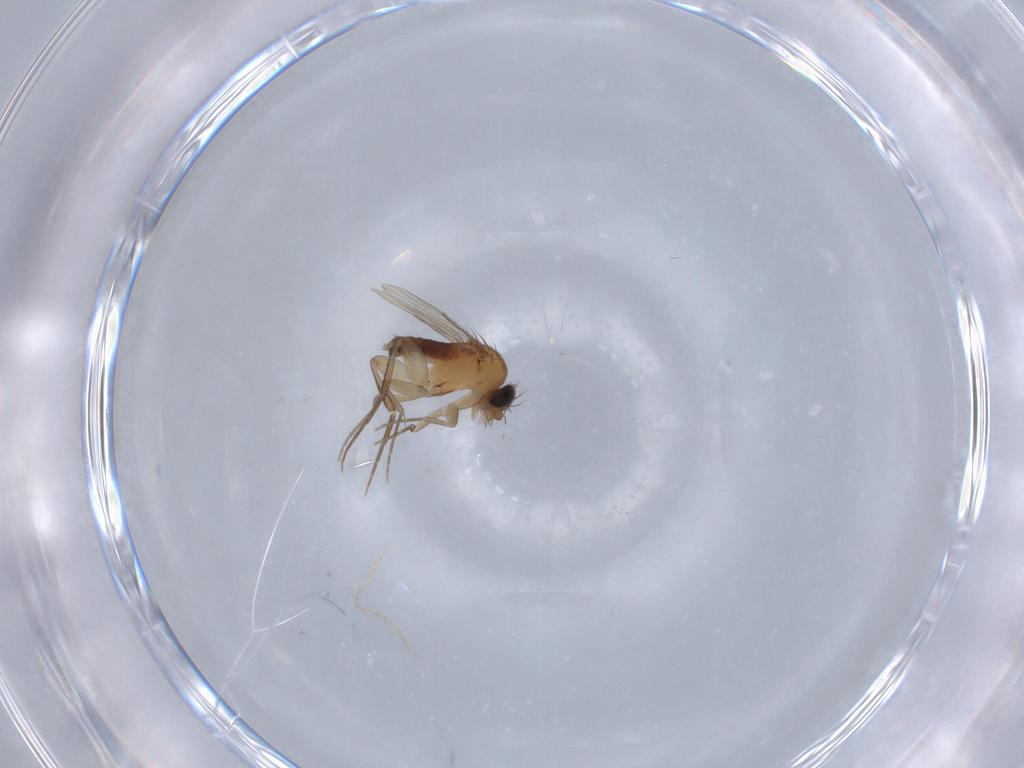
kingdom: Animalia
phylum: Arthropoda
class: Insecta
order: Diptera
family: Phoridae
